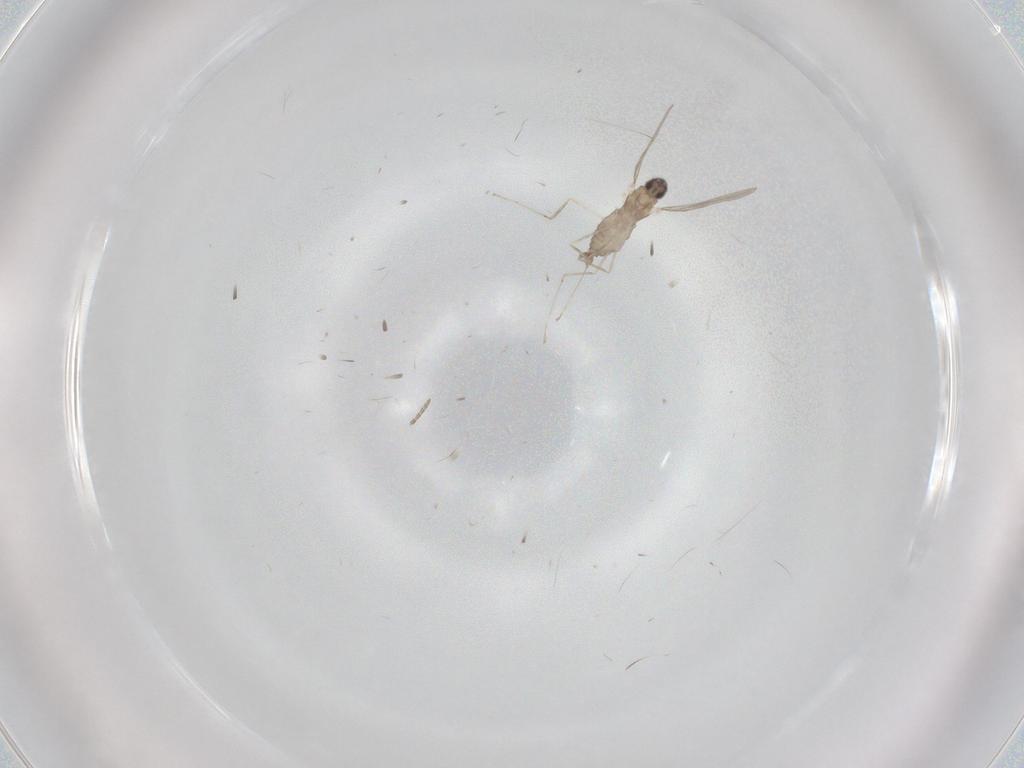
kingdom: Animalia
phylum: Arthropoda
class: Insecta
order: Diptera
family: Cecidomyiidae
